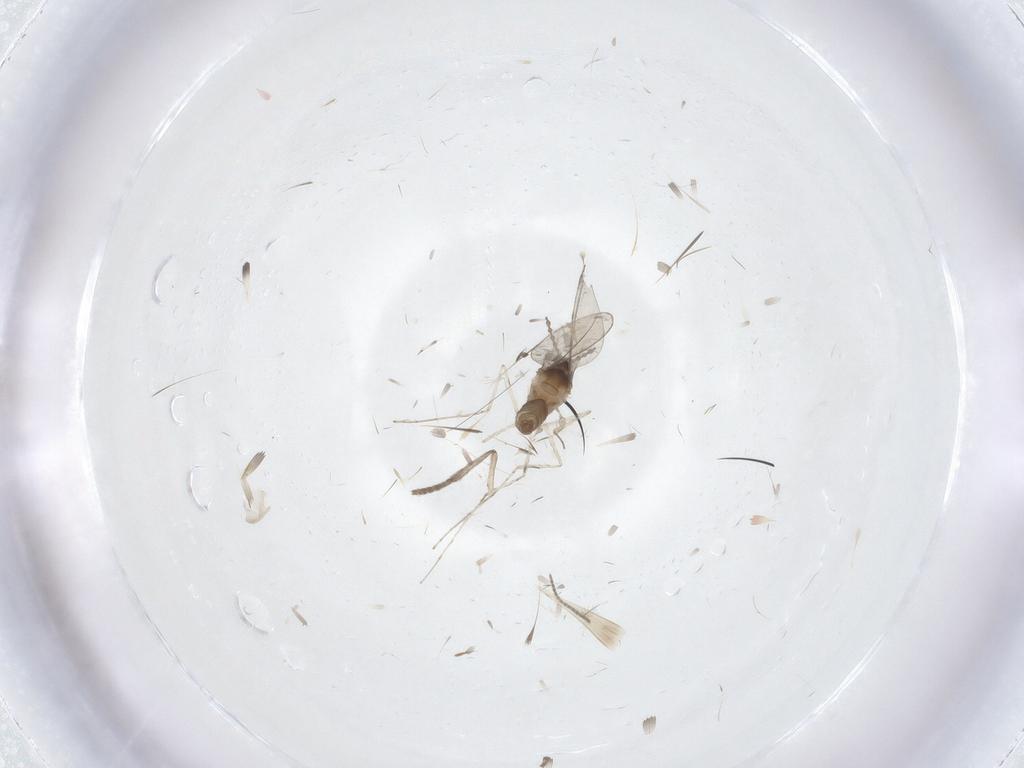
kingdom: Animalia
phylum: Arthropoda
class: Insecta
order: Diptera
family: Psychodidae
